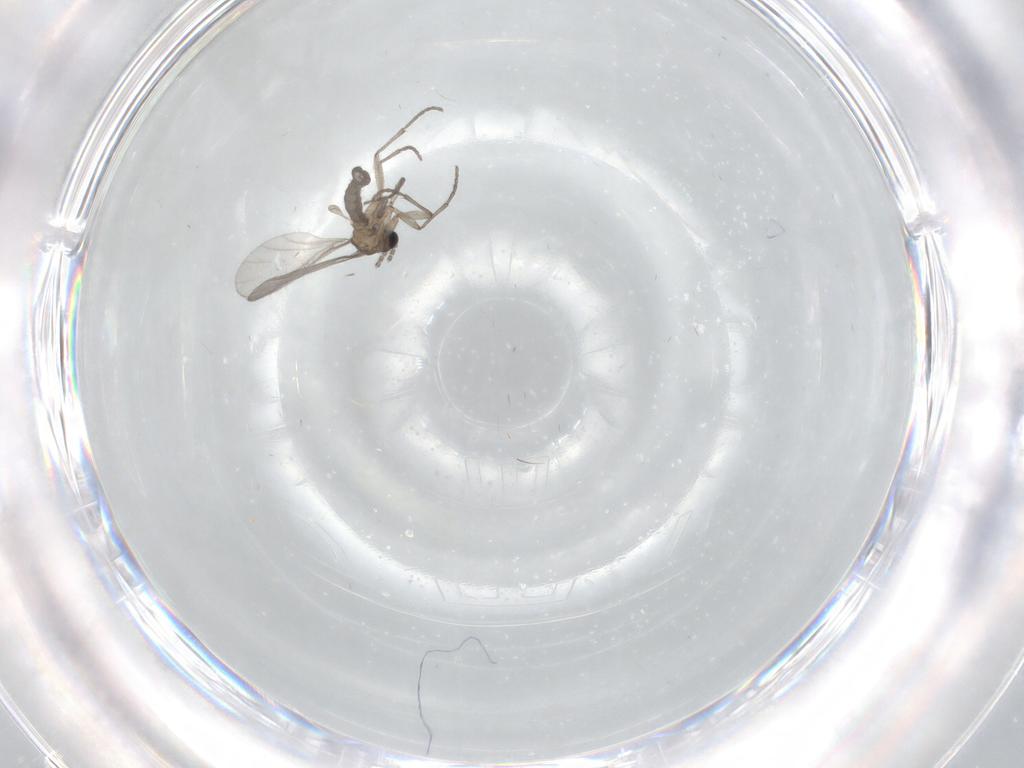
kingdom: Animalia
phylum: Arthropoda
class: Insecta
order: Diptera
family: Sciaridae
